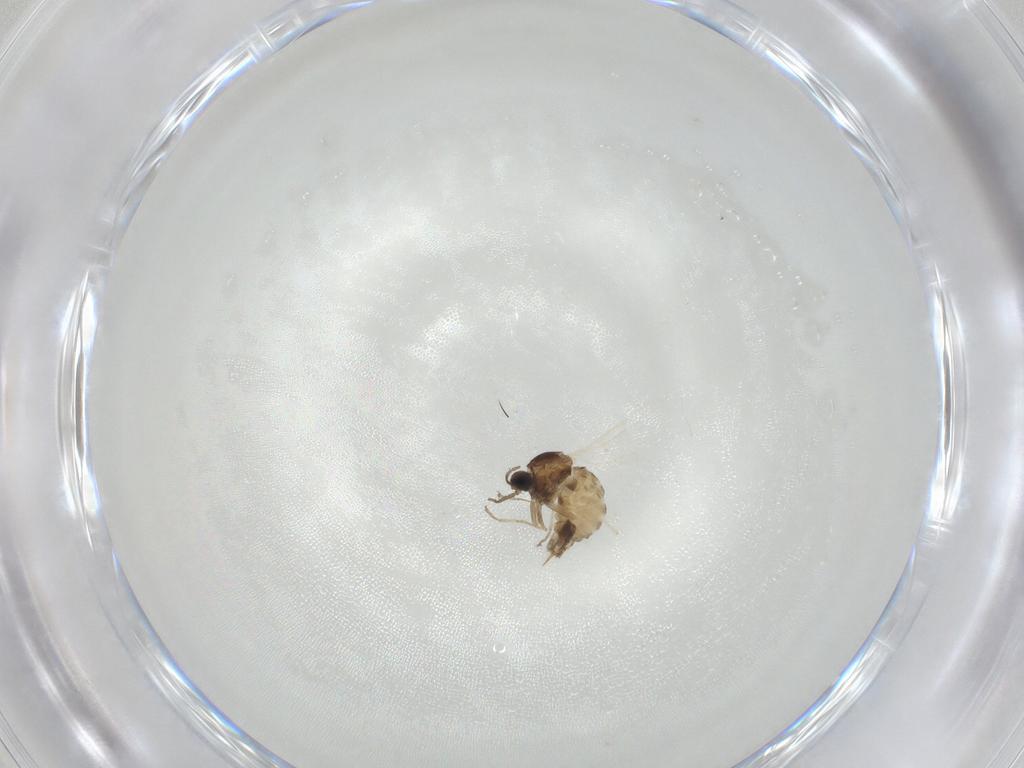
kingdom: Animalia
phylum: Arthropoda
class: Insecta
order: Diptera
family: Cecidomyiidae
